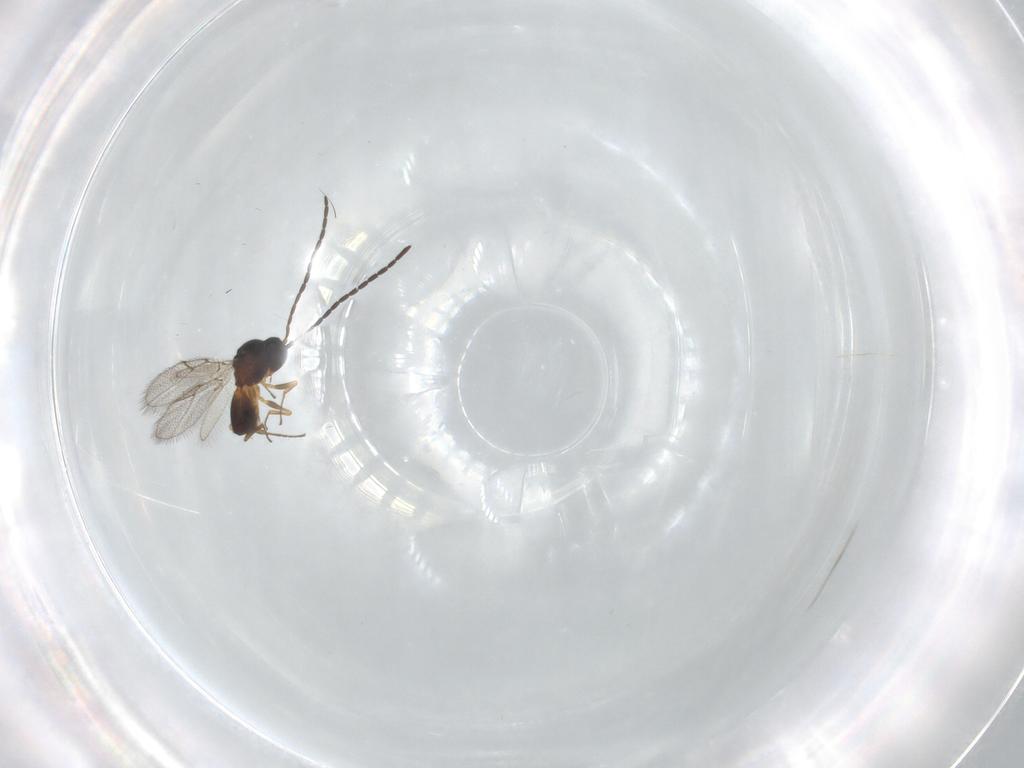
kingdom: Animalia
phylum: Arthropoda
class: Insecta
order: Hymenoptera
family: Figitidae
